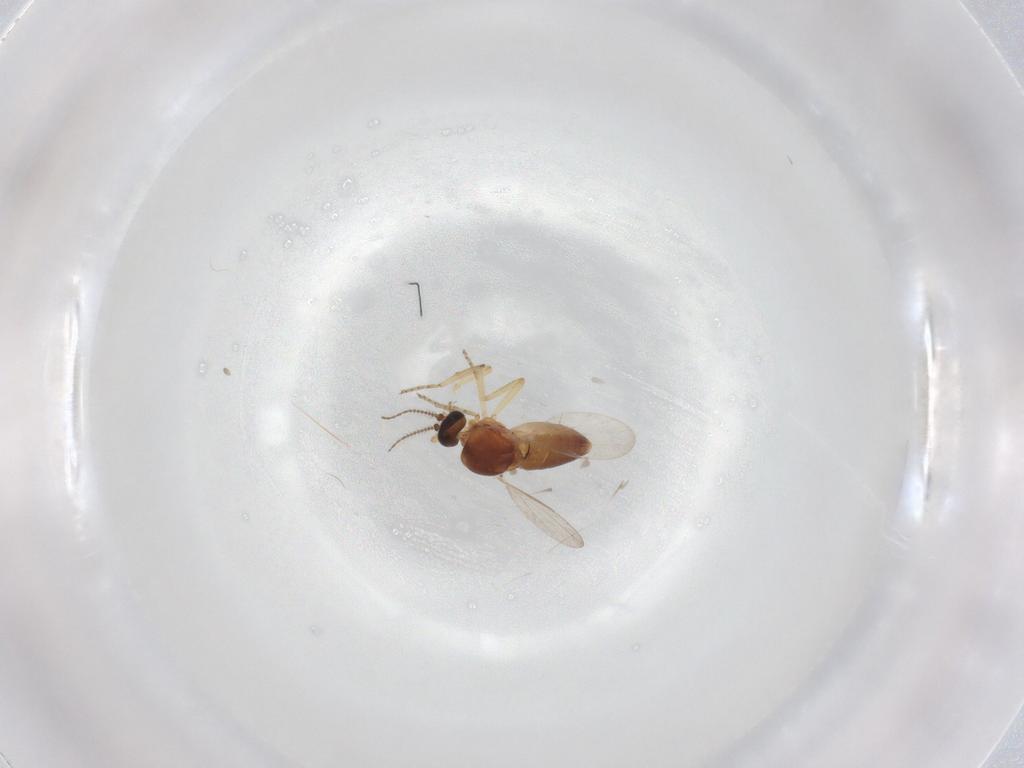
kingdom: Animalia
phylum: Arthropoda
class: Insecta
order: Diptera
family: Ceratopogonidae
